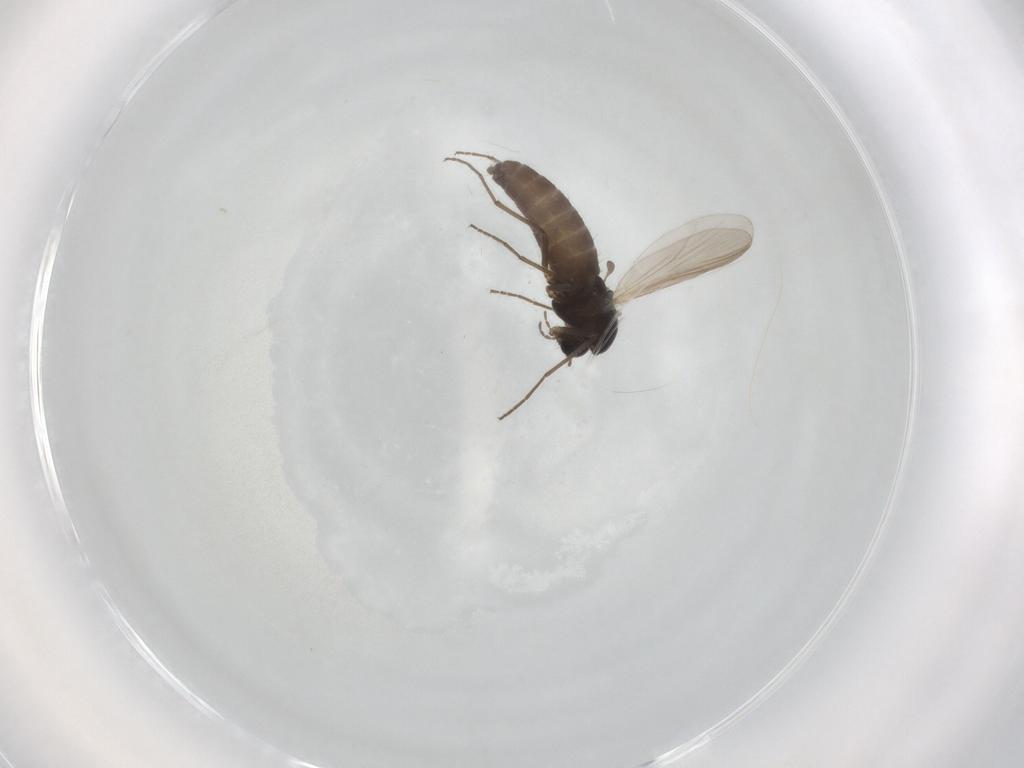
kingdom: Animalia
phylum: Arthropoda
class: Insecta
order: Diptera
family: Chironomidae
